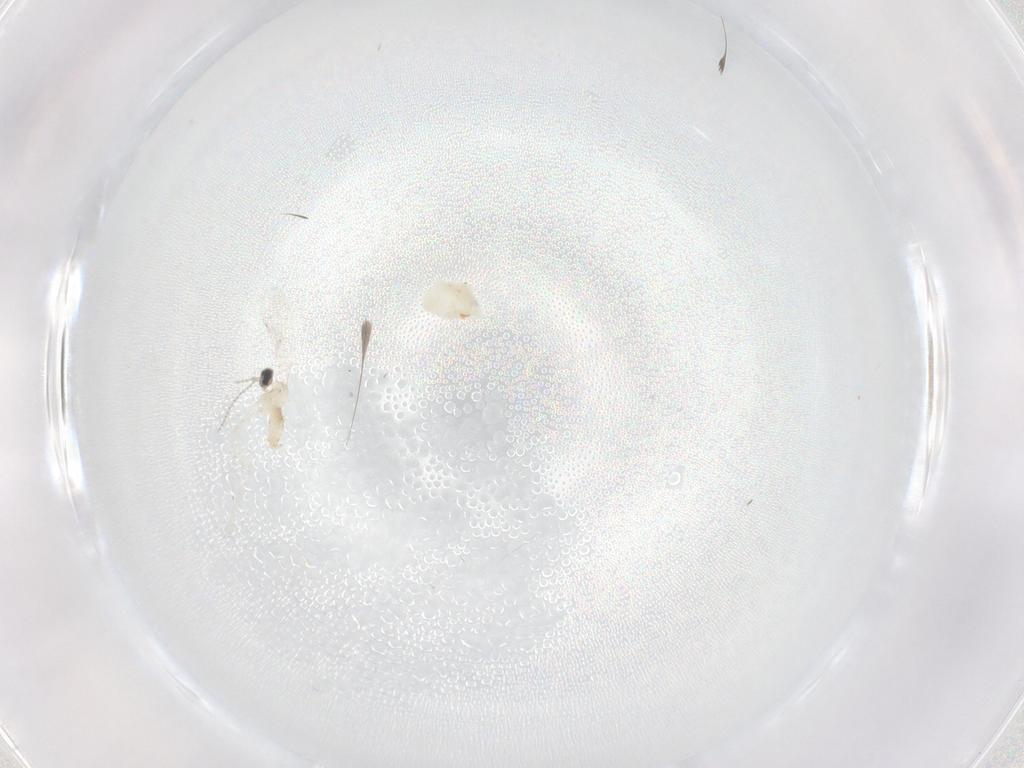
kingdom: Animalia
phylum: Arthropoda
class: Insecta
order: Diptera
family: Cecidomyiidae
